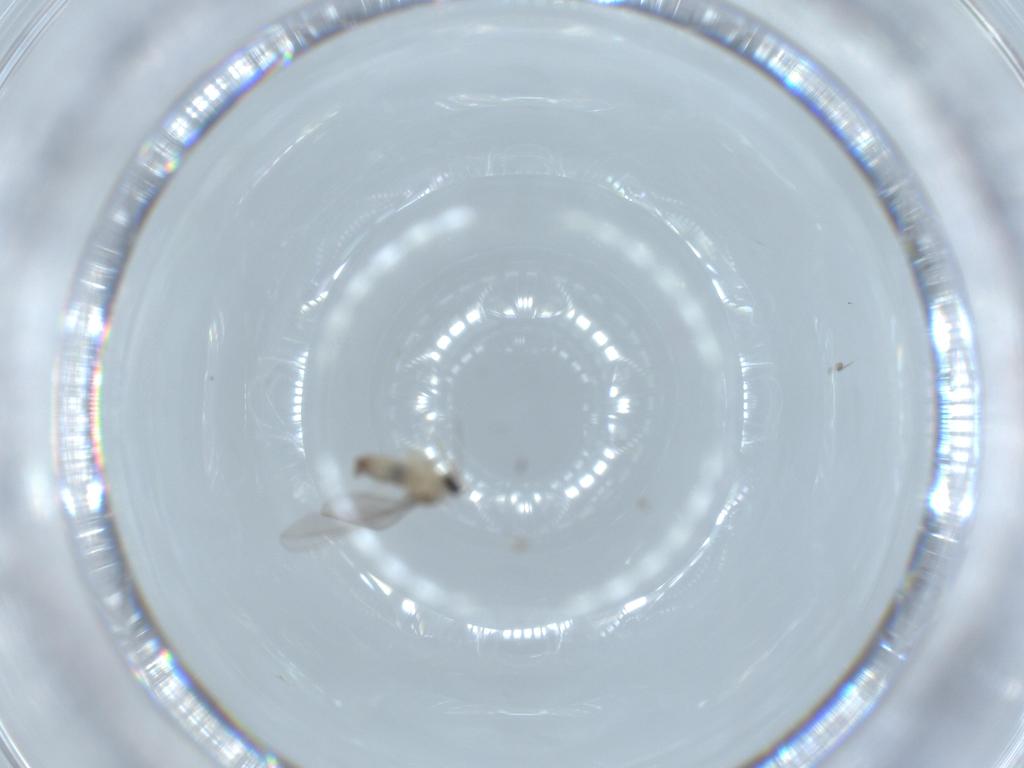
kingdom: Animalia
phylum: Arthropoda
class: Insecta
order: Diptera
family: Cecidomyiidae
